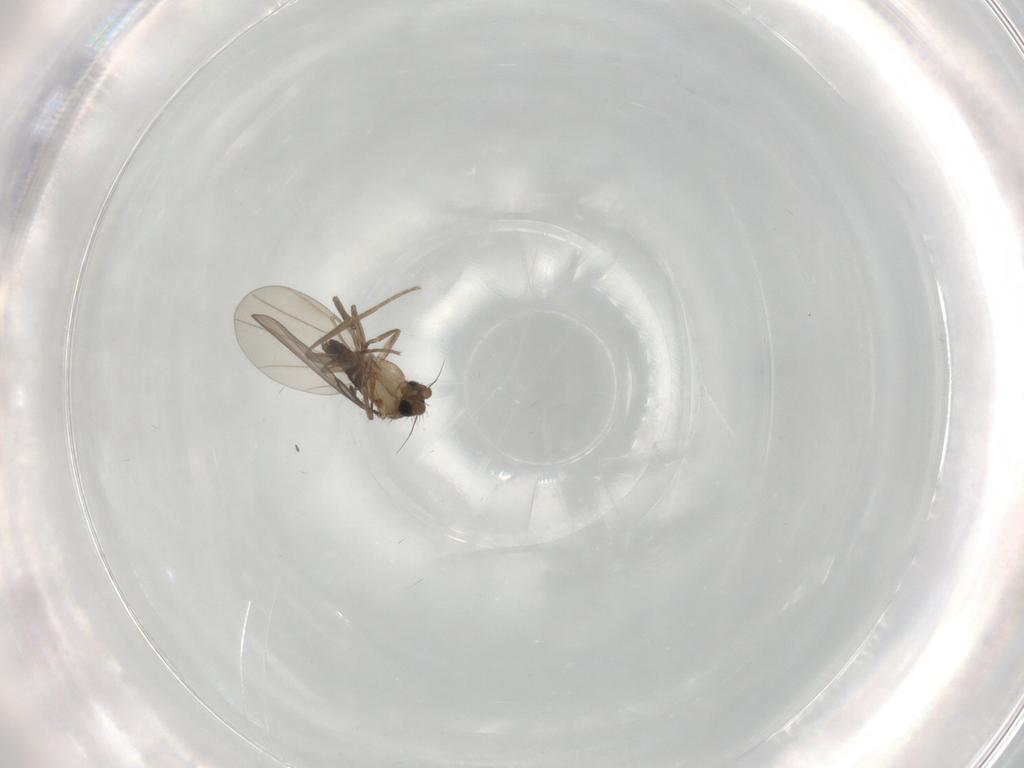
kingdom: Animalia
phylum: Arthropoda
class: Insecta
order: Diptera
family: Phoridae
